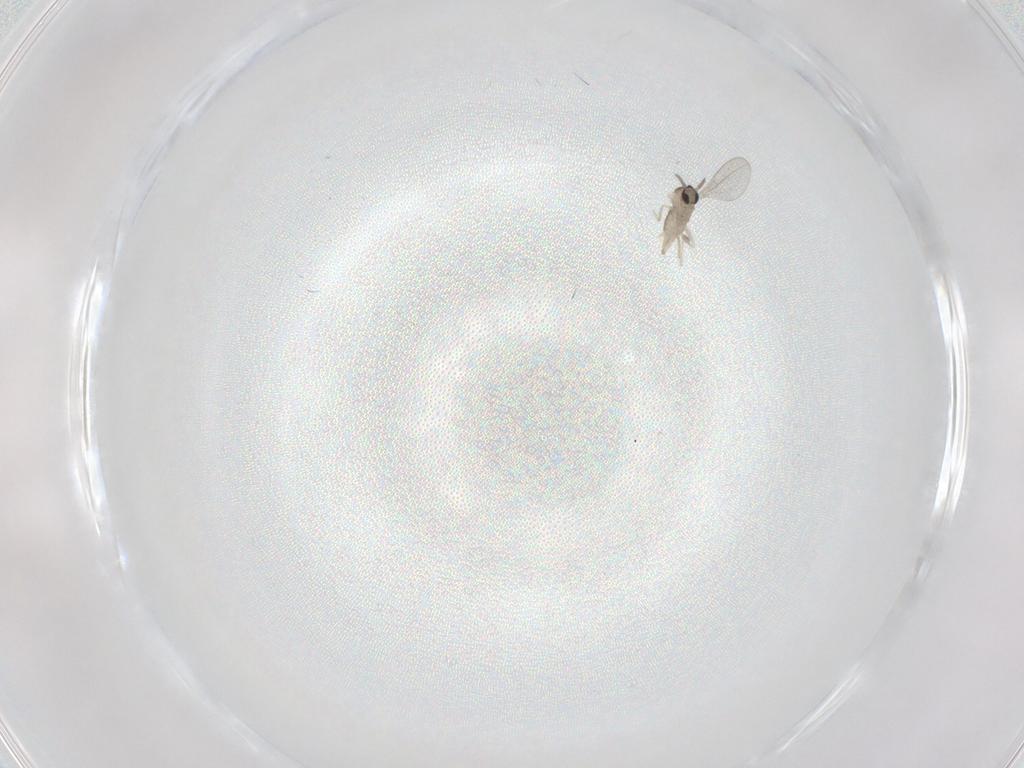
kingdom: Animalia
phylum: Arthropoda
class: Insecta
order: Diptera
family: Cecidomyiidae
